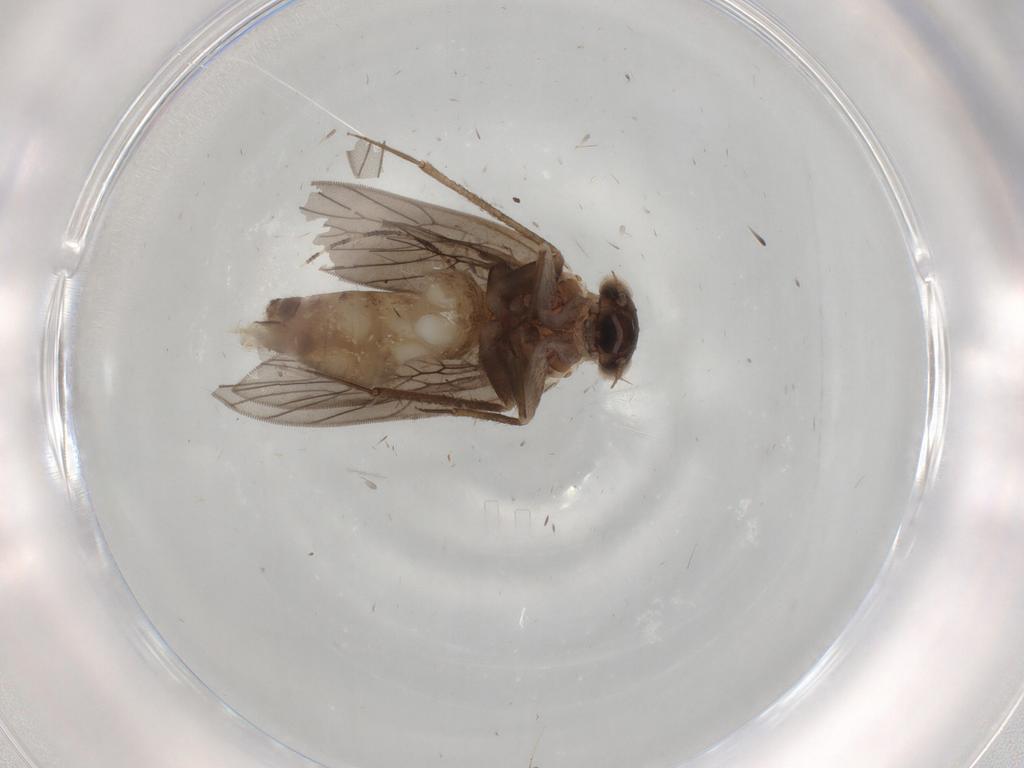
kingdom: Animalia
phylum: Arthropoda
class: Insecta
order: Psocodea
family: Lepidopsocidae
